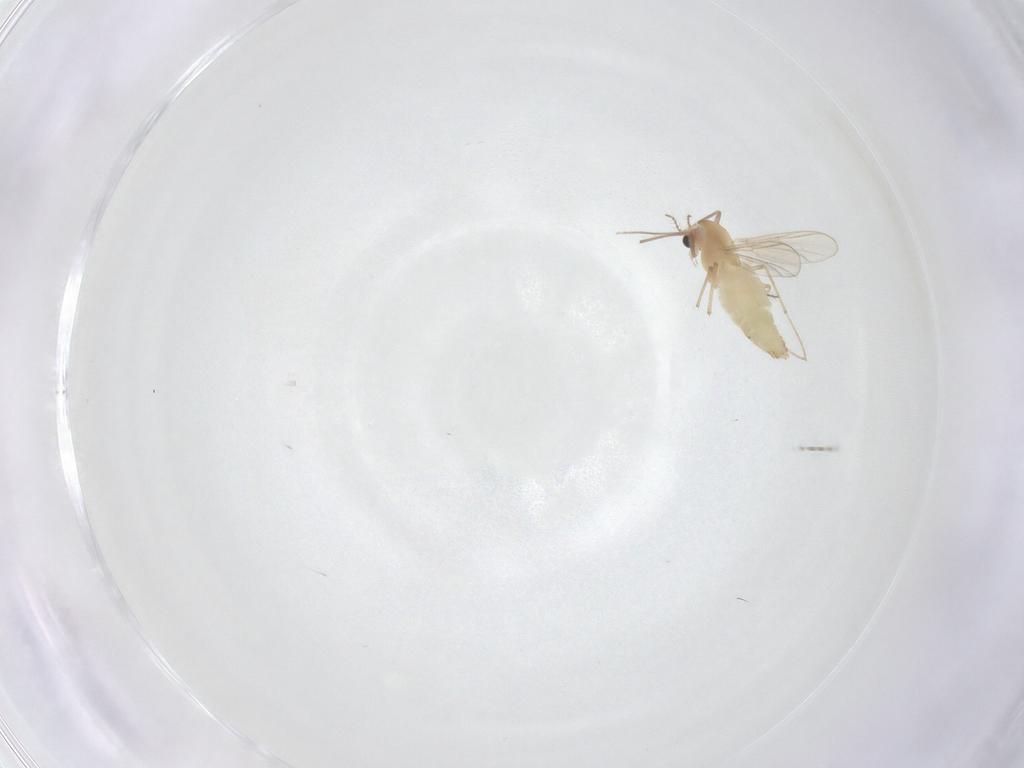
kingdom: Animalia
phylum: Arthropoda
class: Insecta
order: Diptera
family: Chironomidae
